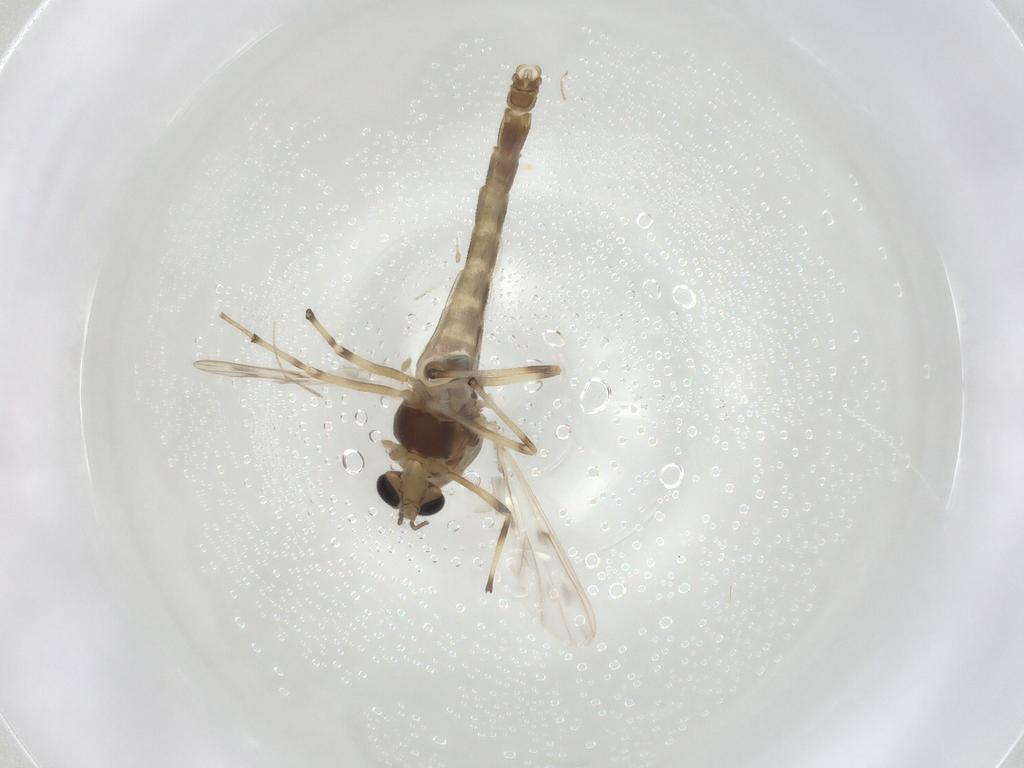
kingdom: Animalia
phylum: Arthropoda
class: Insecta
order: Diptera
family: Chironomidae
